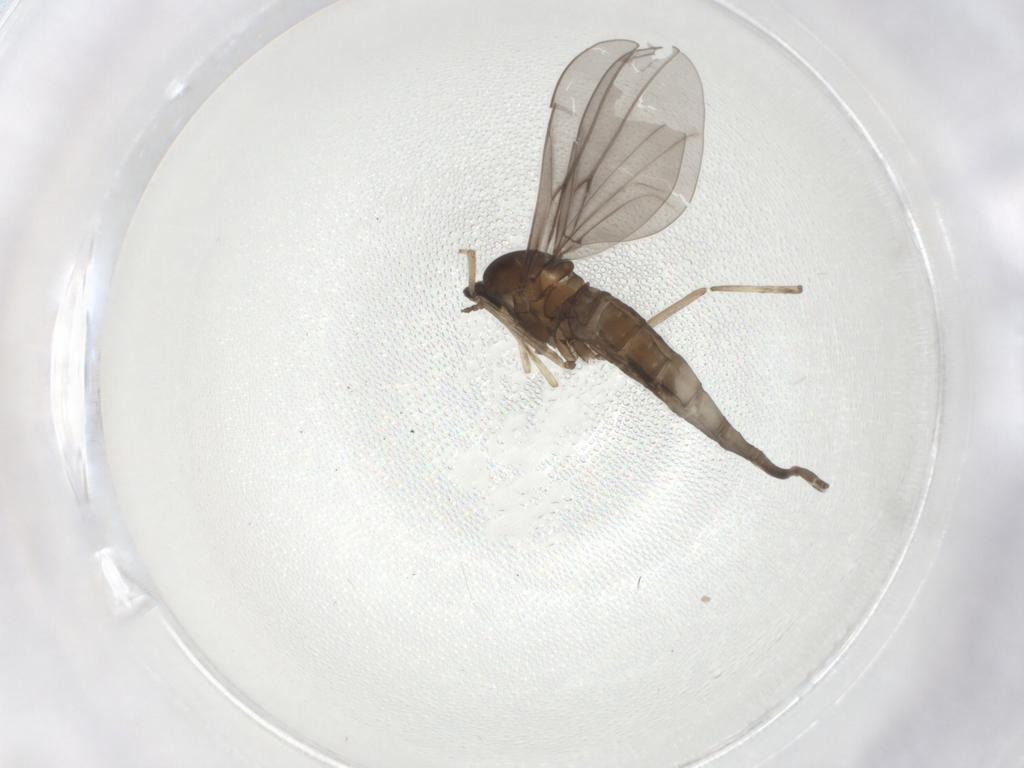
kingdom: Animalia
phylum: Arthropoda
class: Insecta
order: Diptera
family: Cecidomyiidae
